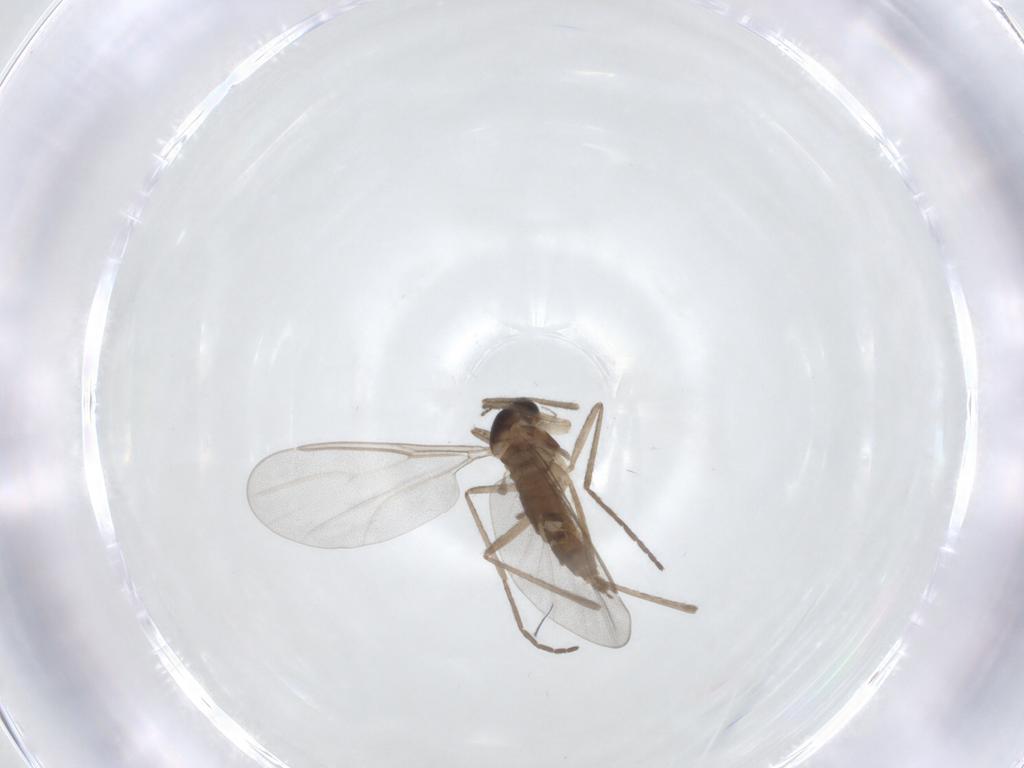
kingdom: Animalia
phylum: Arthropoda
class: Insecta
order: Diptera
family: Cecidomyiidae
